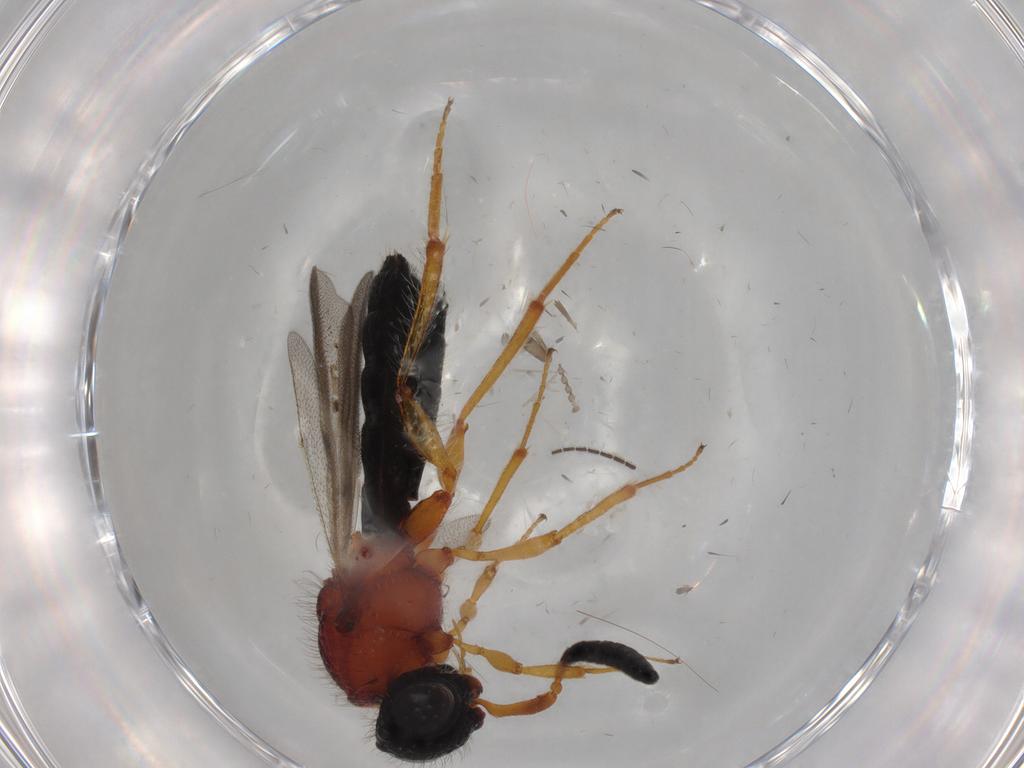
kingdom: Animalia
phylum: Arthropoda
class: Insecta
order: Hymenoptera
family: Scelionidae
